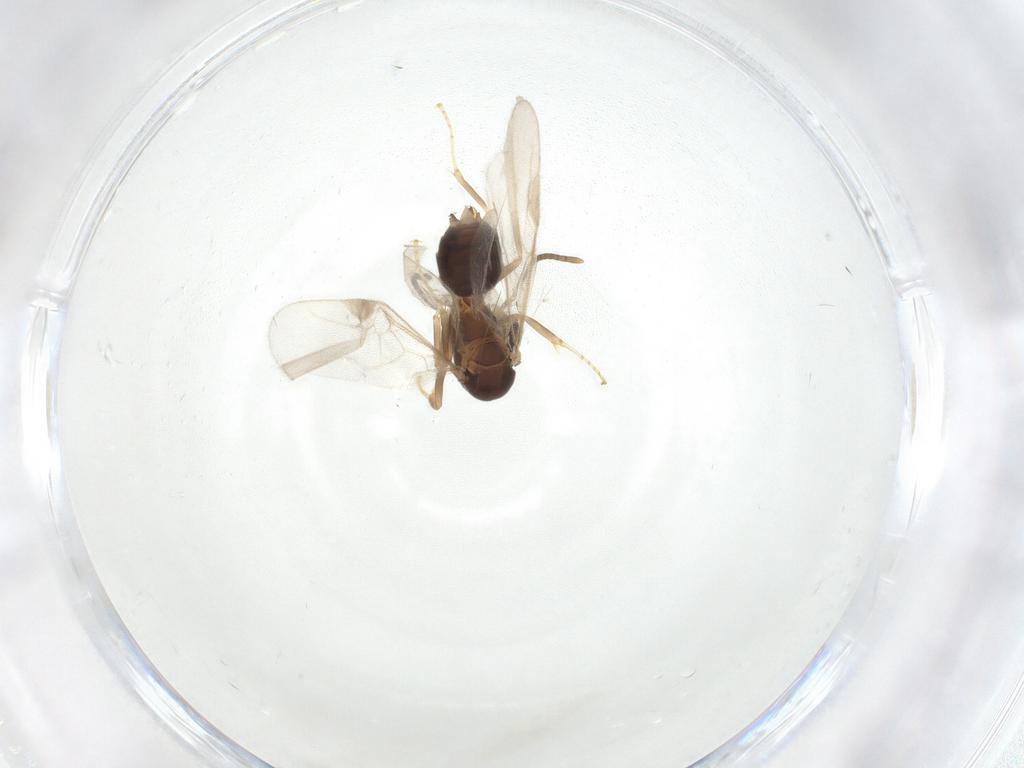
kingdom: Animalia
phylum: Arthropoda
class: Insecta
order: Hymenoptera
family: Formicidae
